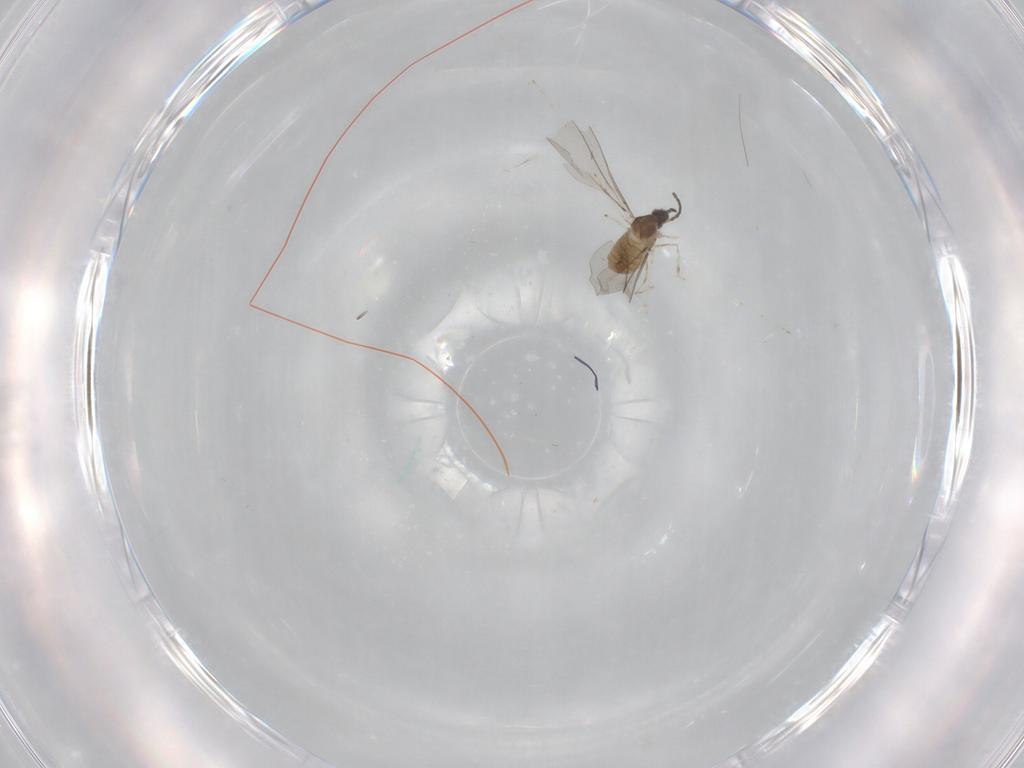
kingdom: Animalia
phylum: Arthropoda
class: Insecta
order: Diptera
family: Cecidomyiidae
